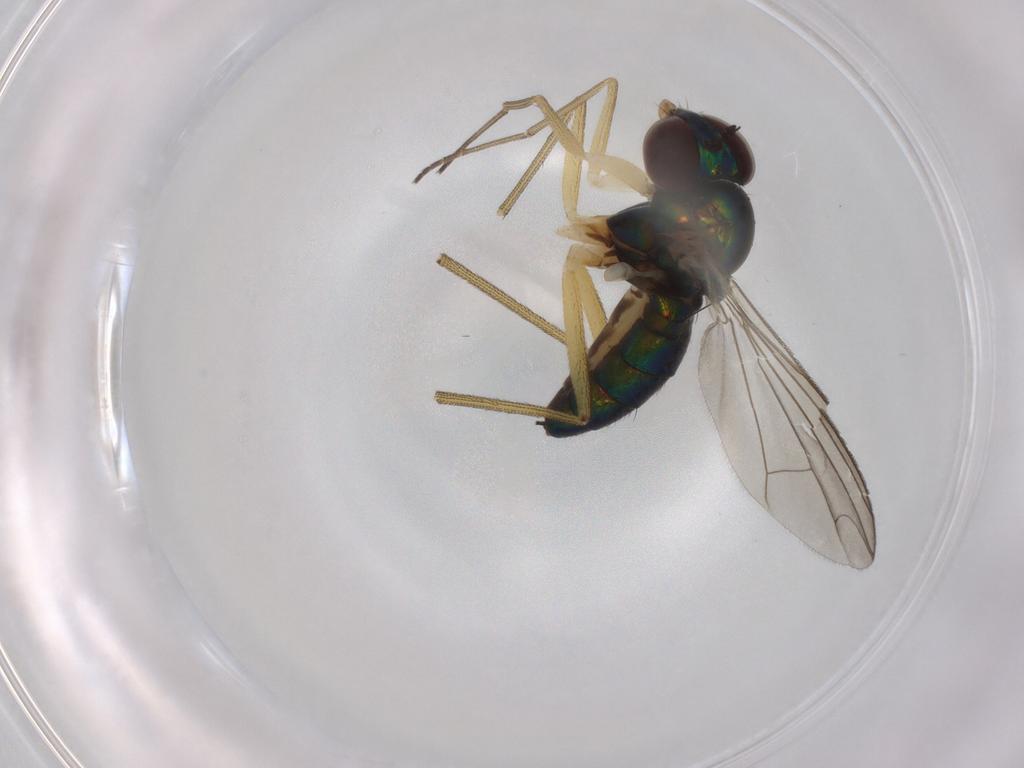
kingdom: Animalia
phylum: Arthropoda
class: Insecta
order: Diptera
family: Dolichopodidae
